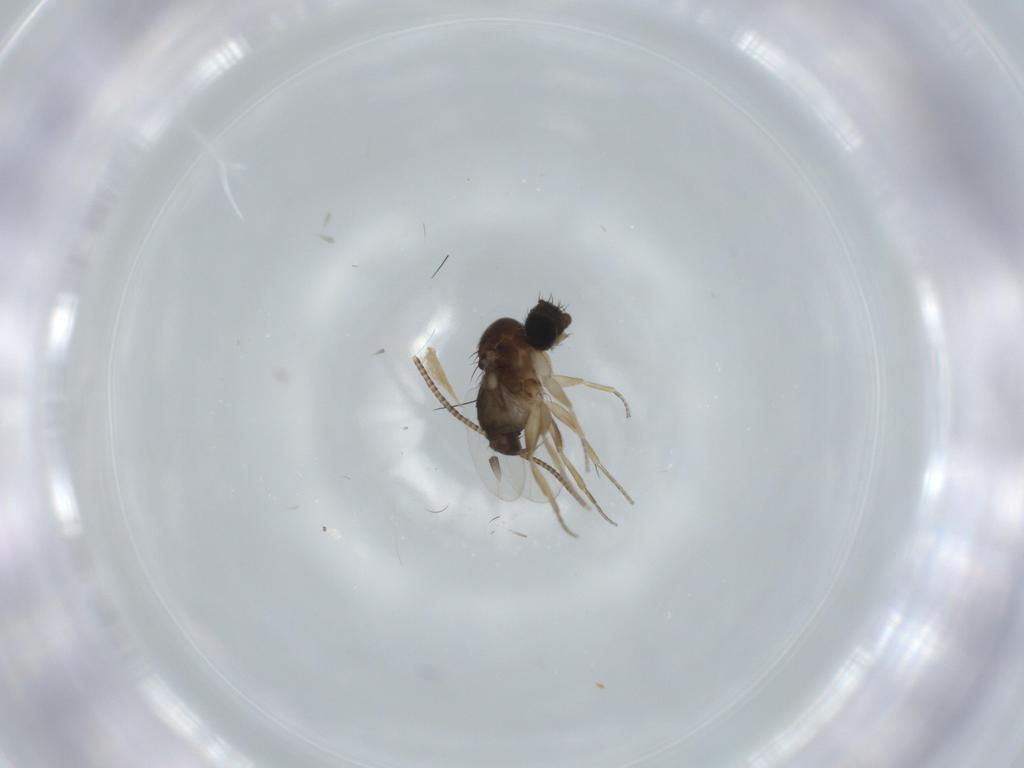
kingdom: Animalia
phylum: Arthropoda
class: Insecta
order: Diptera
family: Phoridae
